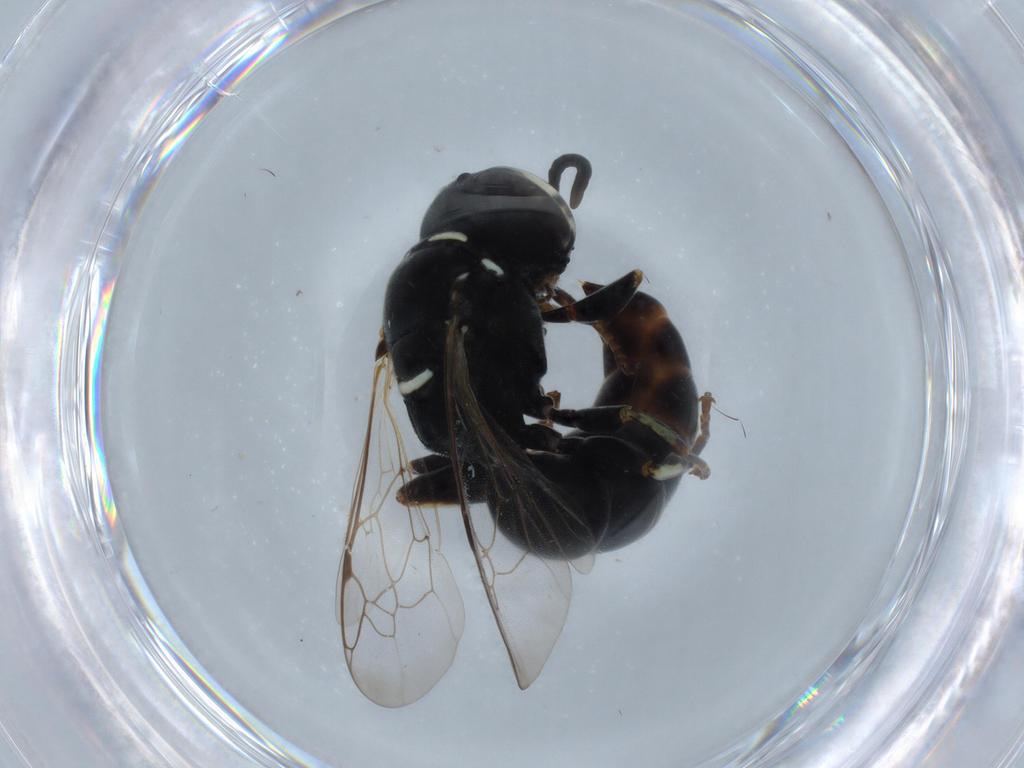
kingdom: Animalia
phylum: Arthropoda
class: Insecta
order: Hymenoptera
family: Mymaridae
